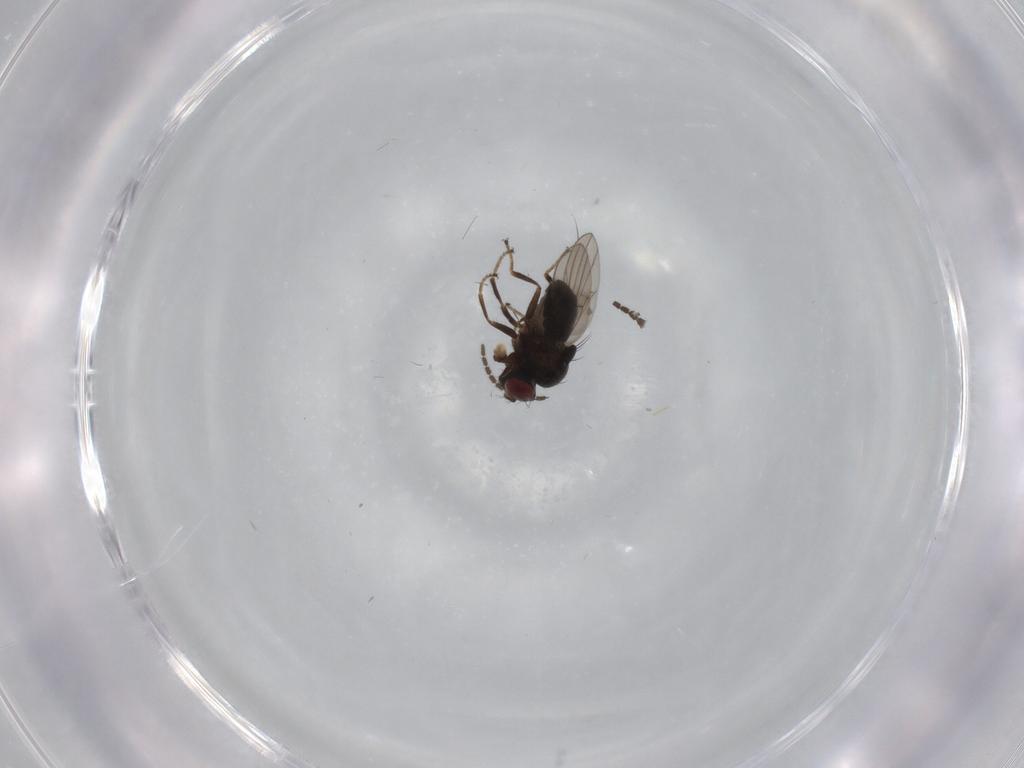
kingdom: Animalia
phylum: Arthropoda
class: Insecta
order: Diptera
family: Ephydridae
